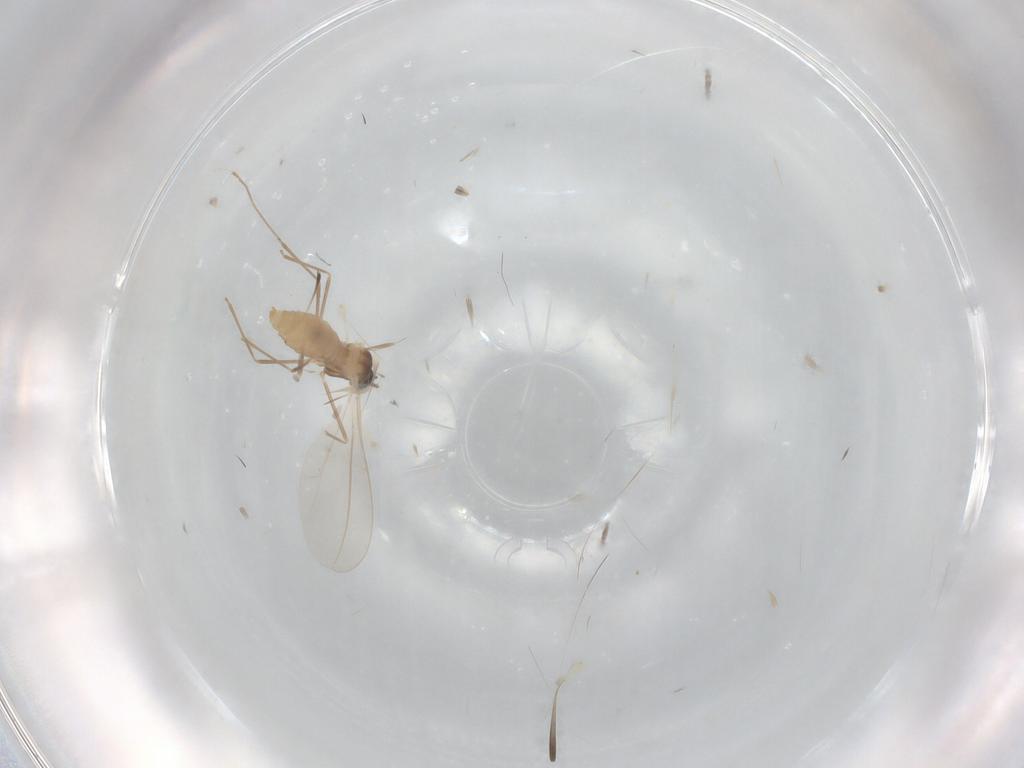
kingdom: Animalia
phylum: Arthropoda
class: Insecta
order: Diptera
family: Cecidomyiidae
